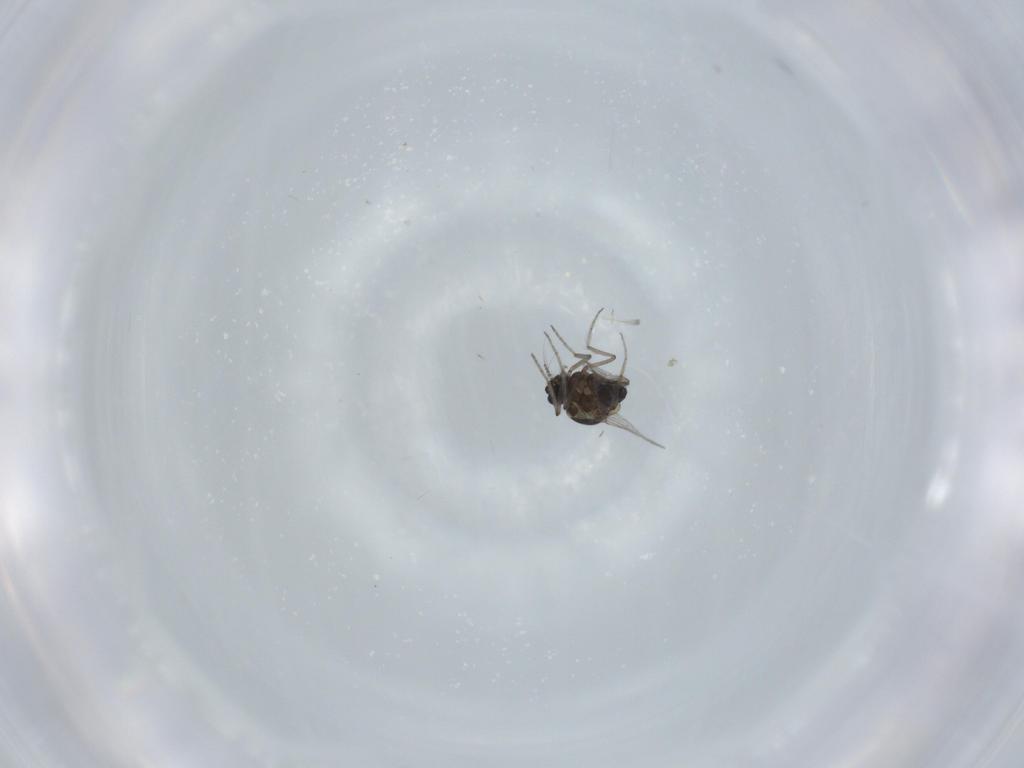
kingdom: Animalia
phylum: Arthropoda
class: Insecta
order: Diptera
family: Ceratopogonidae
